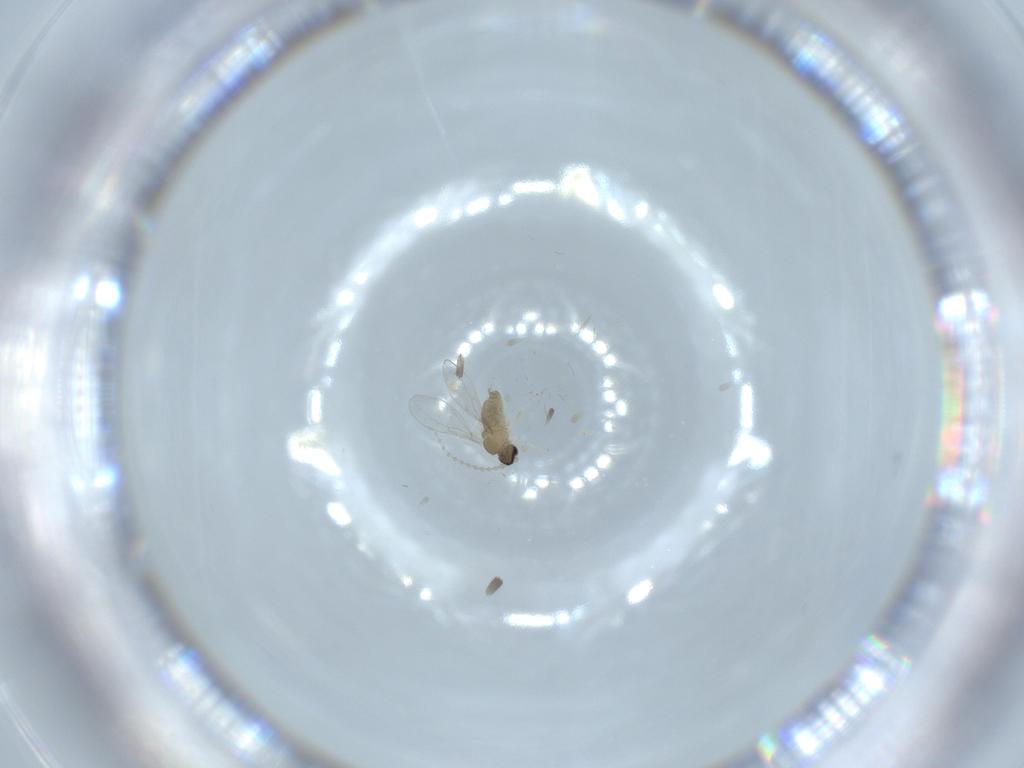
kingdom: Animalia
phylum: Arthropoda
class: Insecta
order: Diptera
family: Cecidomyiidae
